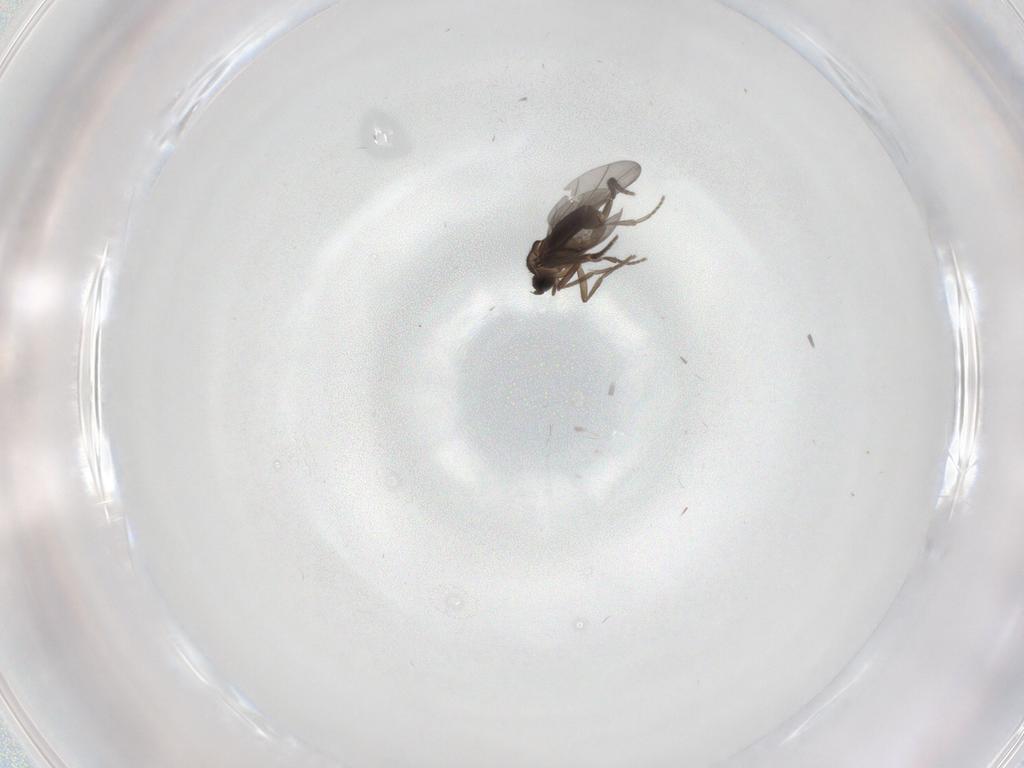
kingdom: Animalia
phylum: Arthropoda
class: Insecta
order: Diptera
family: Phoridae
